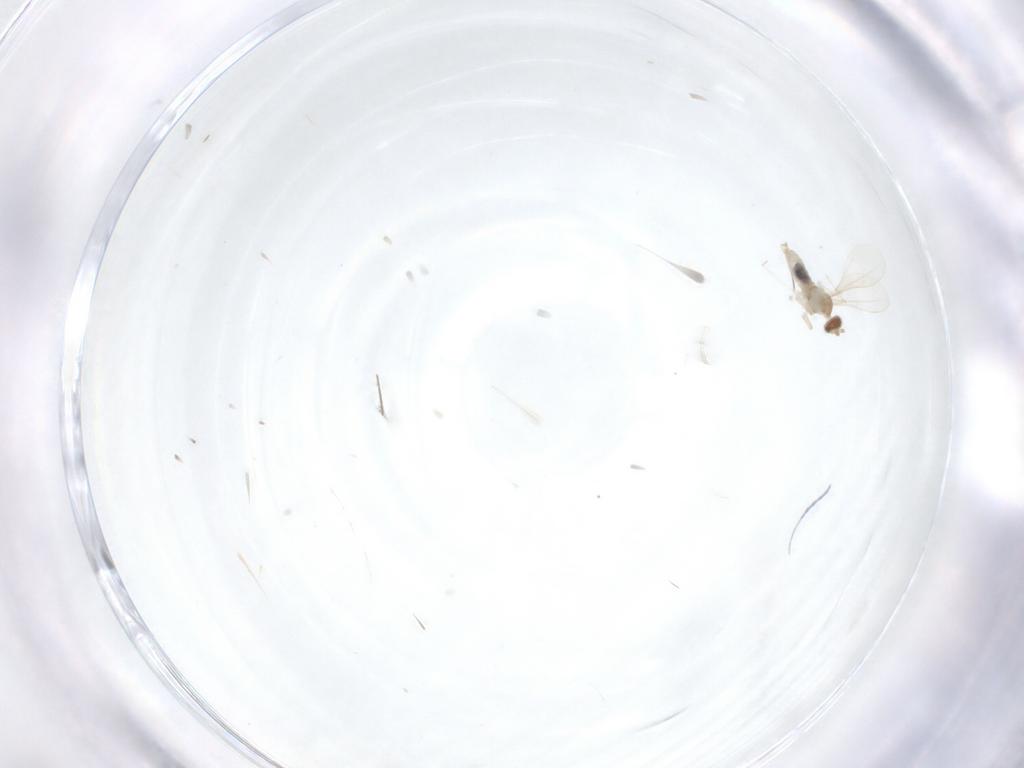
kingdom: Animalia
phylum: Arthropoda
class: Insecta
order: Diptera
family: Chironomidae
